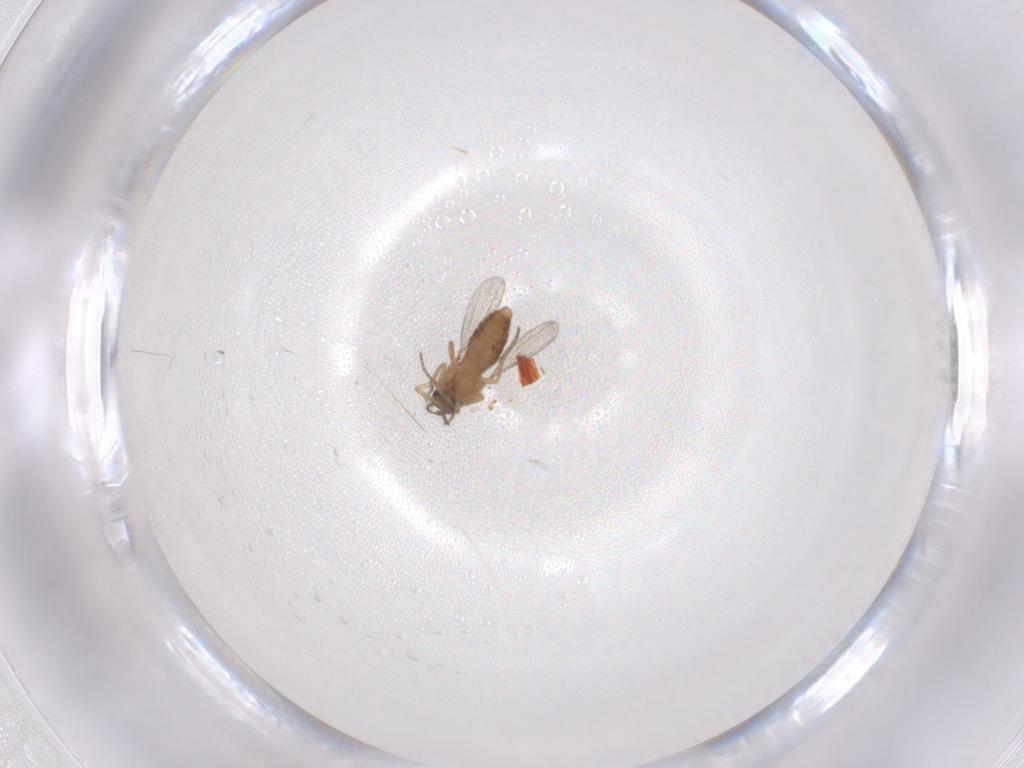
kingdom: Animalia
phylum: Arthropoda
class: Insecta
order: Diptera
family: Ceratopogonidae
